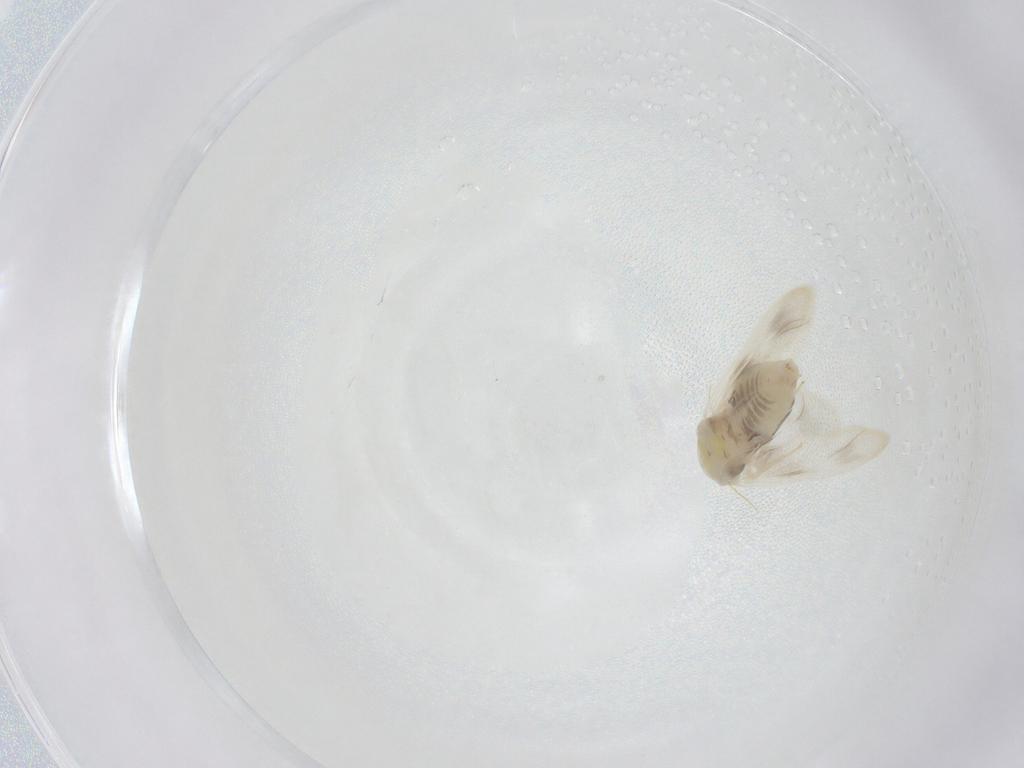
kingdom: Animalia
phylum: Arthropoda
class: Insecta
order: Hemiptera
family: Aleyrodidae
